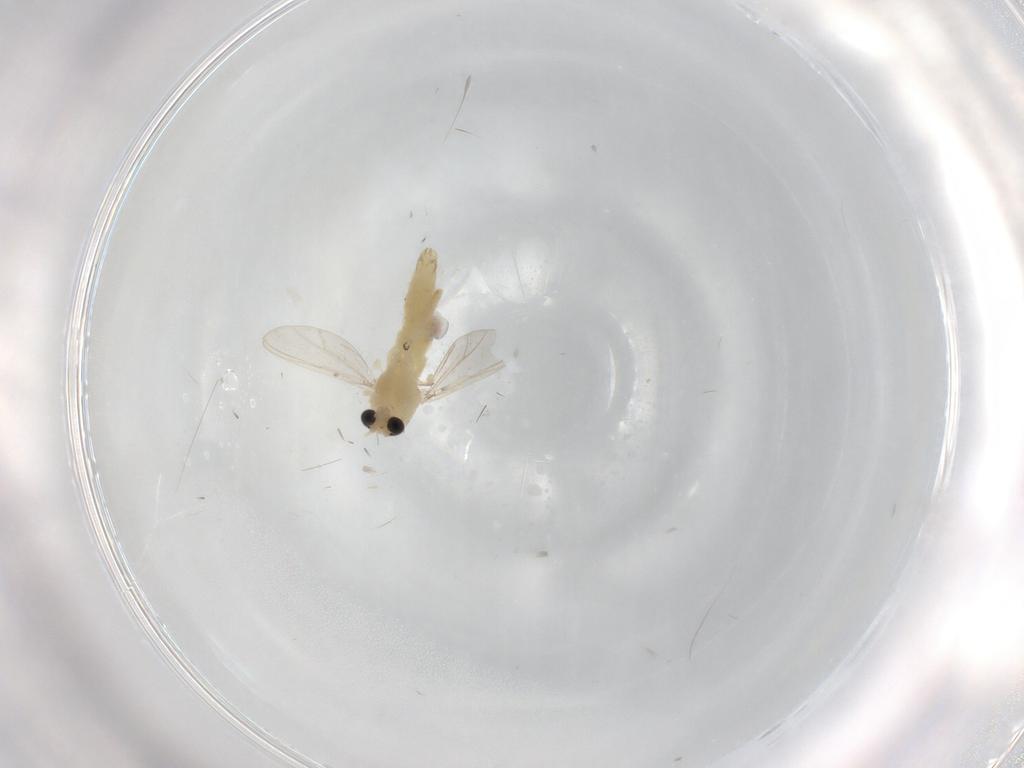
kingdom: Animalia
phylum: Arthropoda
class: Insecta
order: Diptera
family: Chironomidae
